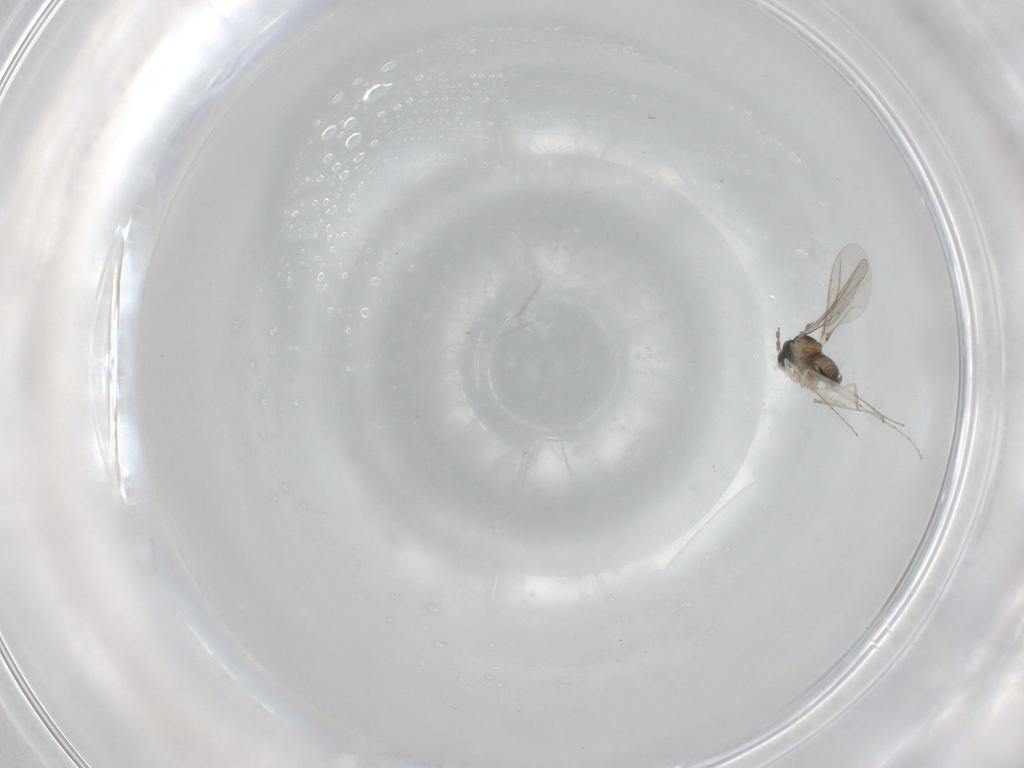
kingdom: Animalia
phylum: Arthropoda
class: Insecta
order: Diptera
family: Cecidomyiidae
